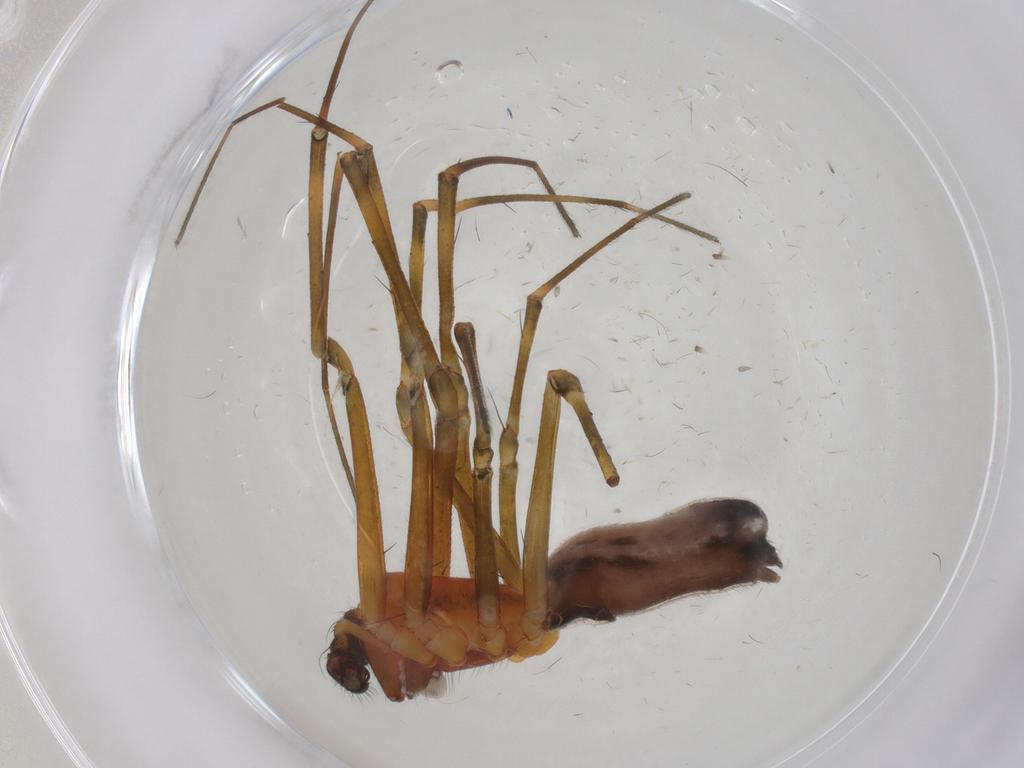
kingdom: Animalia
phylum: Arthropoda
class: Arachnida
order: Araneae
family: Linyphiidae
